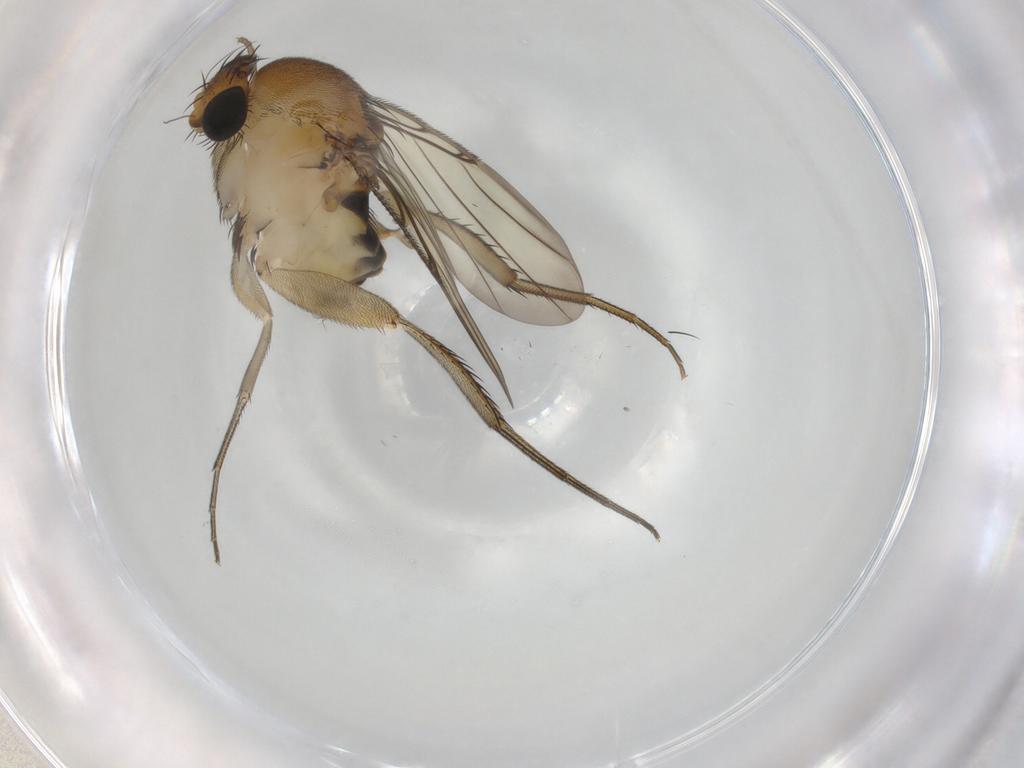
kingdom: Animalia
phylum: Arthropoda
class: Insecta
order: Diptera
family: Phoridae
